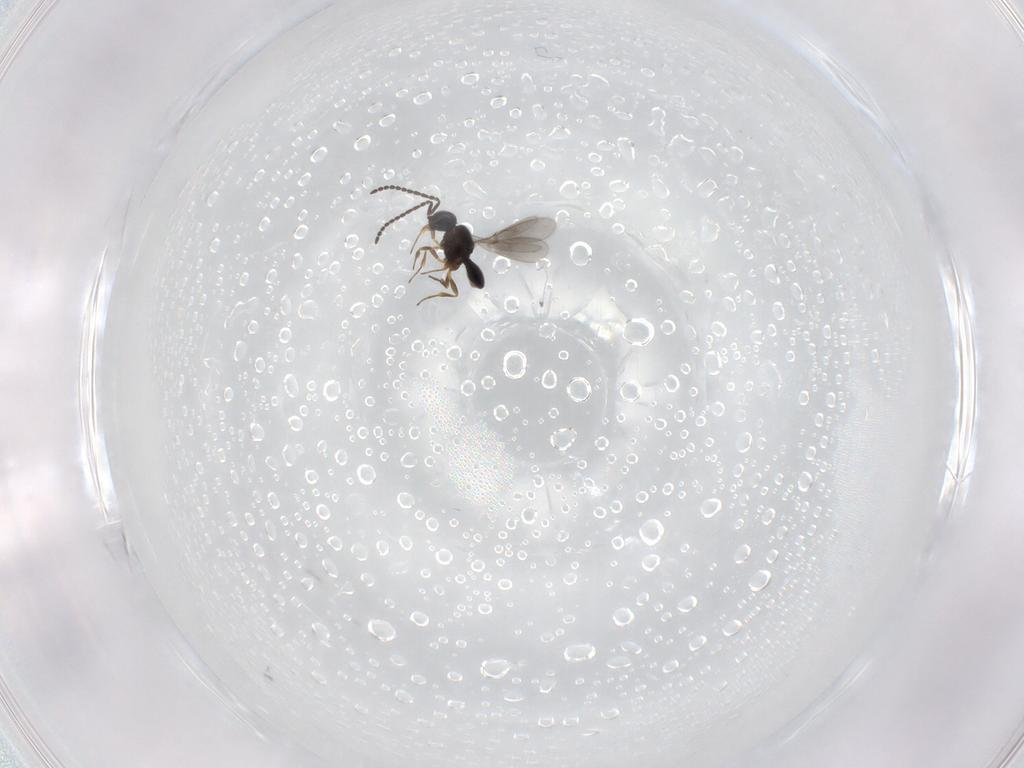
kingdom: Animalia
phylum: Arthropoda
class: Insecta
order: Hymenoptera
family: Scelionidae
